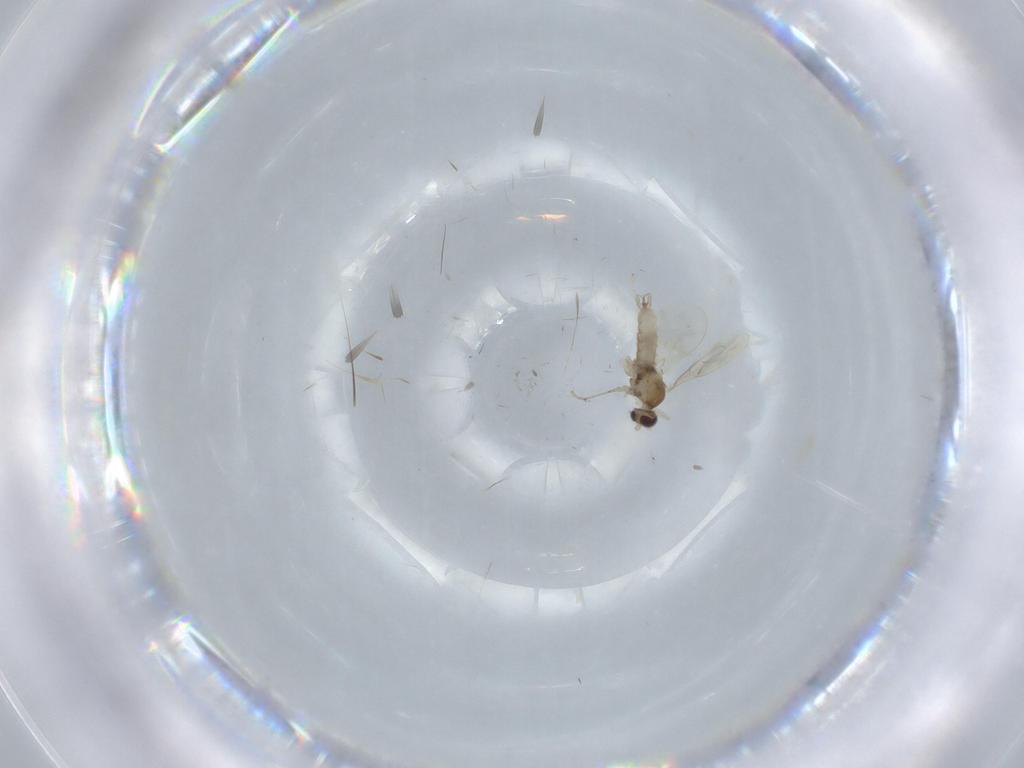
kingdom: Animalia
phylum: Arthropoda
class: Insecta
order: Diptera
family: Cecidomyiidae
